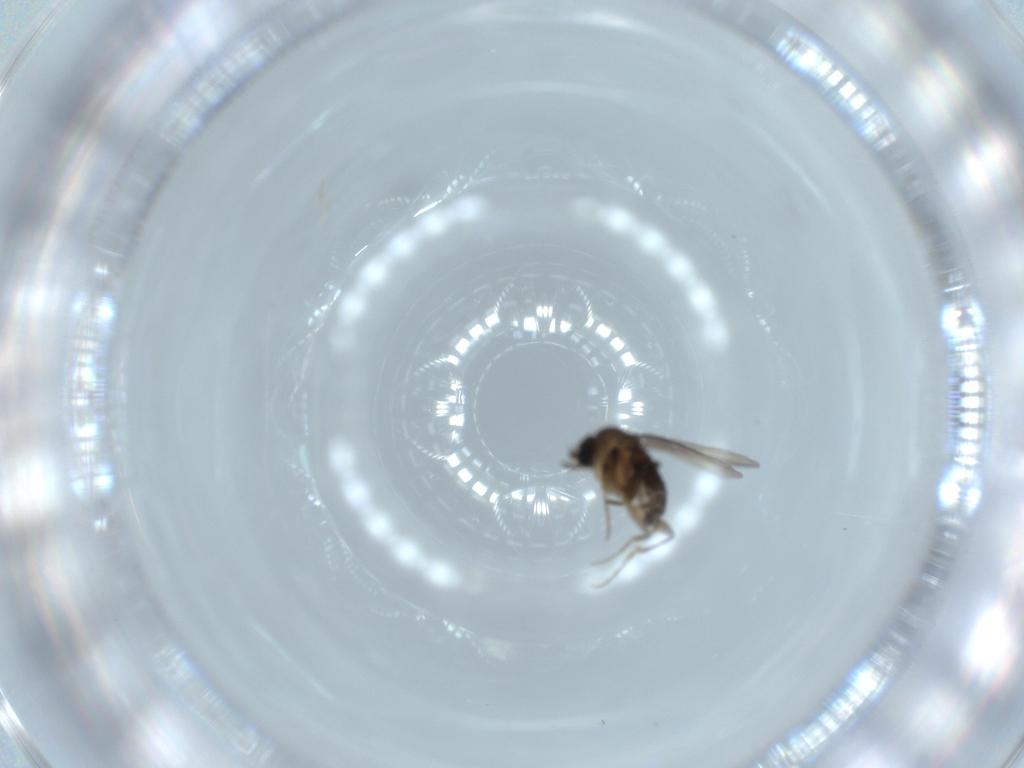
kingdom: Animalia
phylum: Arthropoda
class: Insecta
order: Diptera
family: Phoridae
